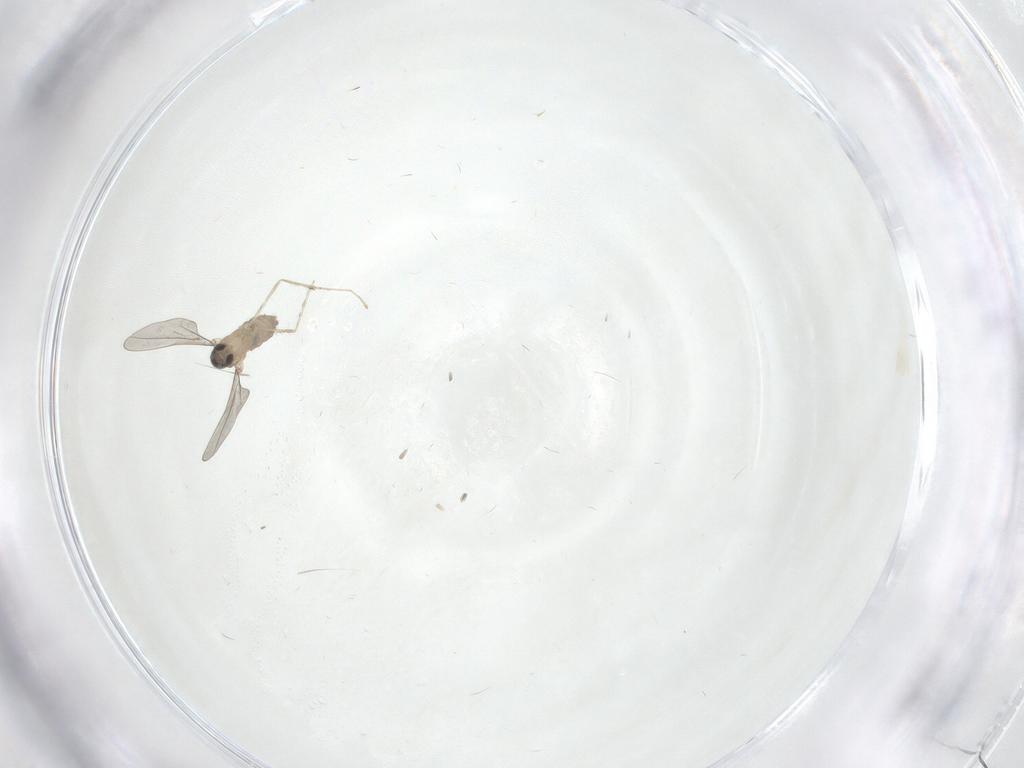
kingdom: Animalia
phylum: Arthropoda
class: Insecta
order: Diptera
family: Cecidomyiidae
